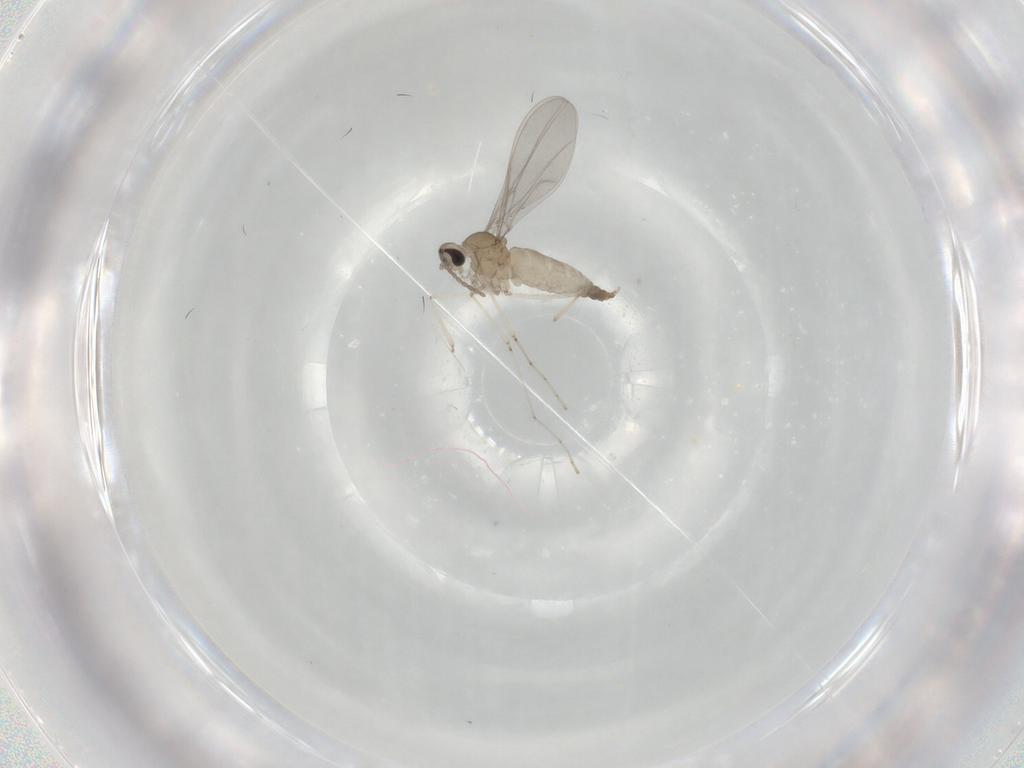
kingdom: Animalia
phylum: Arthropoda
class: Insecta
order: Diptera
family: Cecidomyiidae
